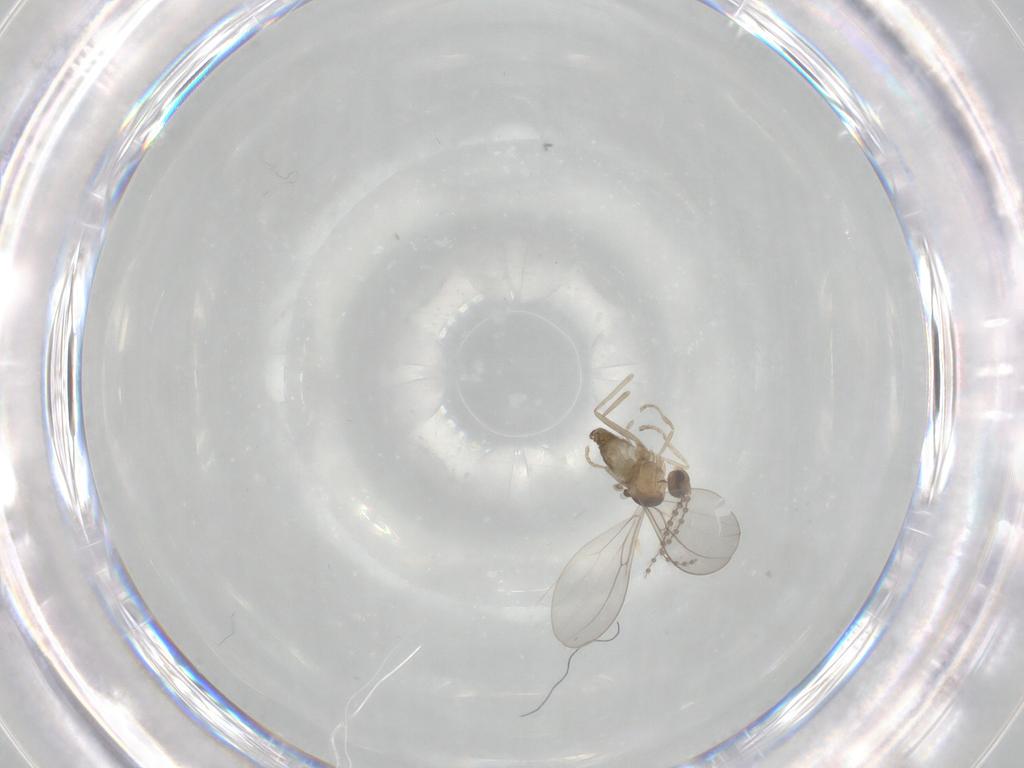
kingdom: Animalia
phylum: Arthropoda
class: Insecta
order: Diptera
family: Cecidomyiidae
